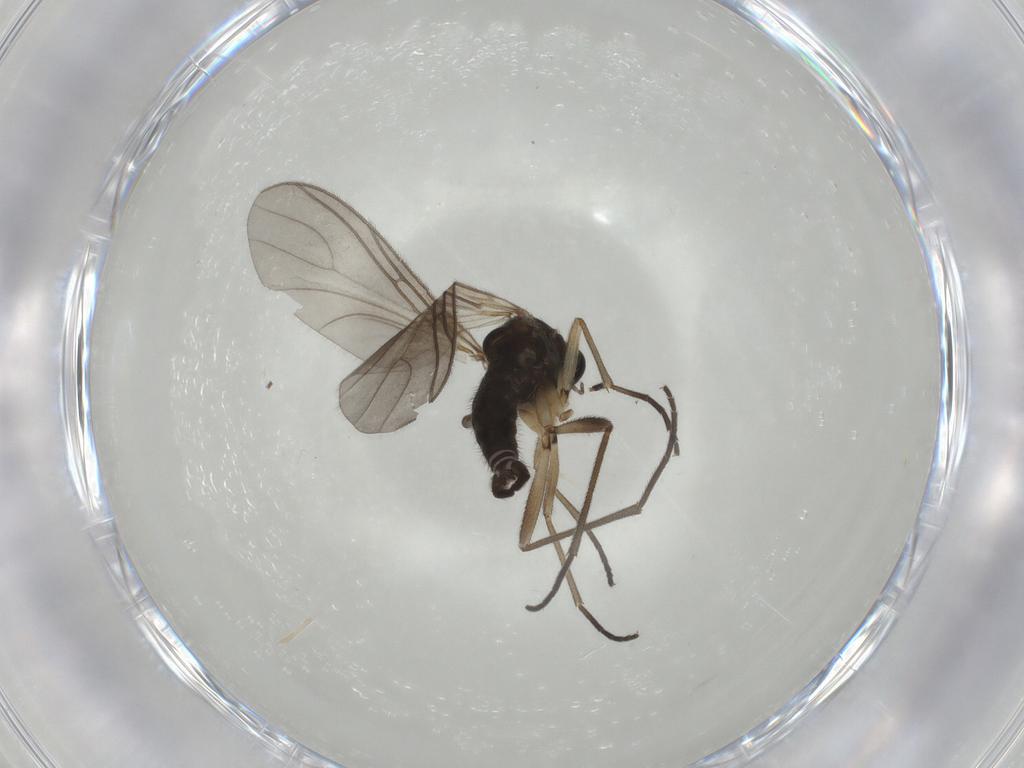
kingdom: Animalia
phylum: Arthropoda
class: Insecta
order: Diptera
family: Sciaridae
